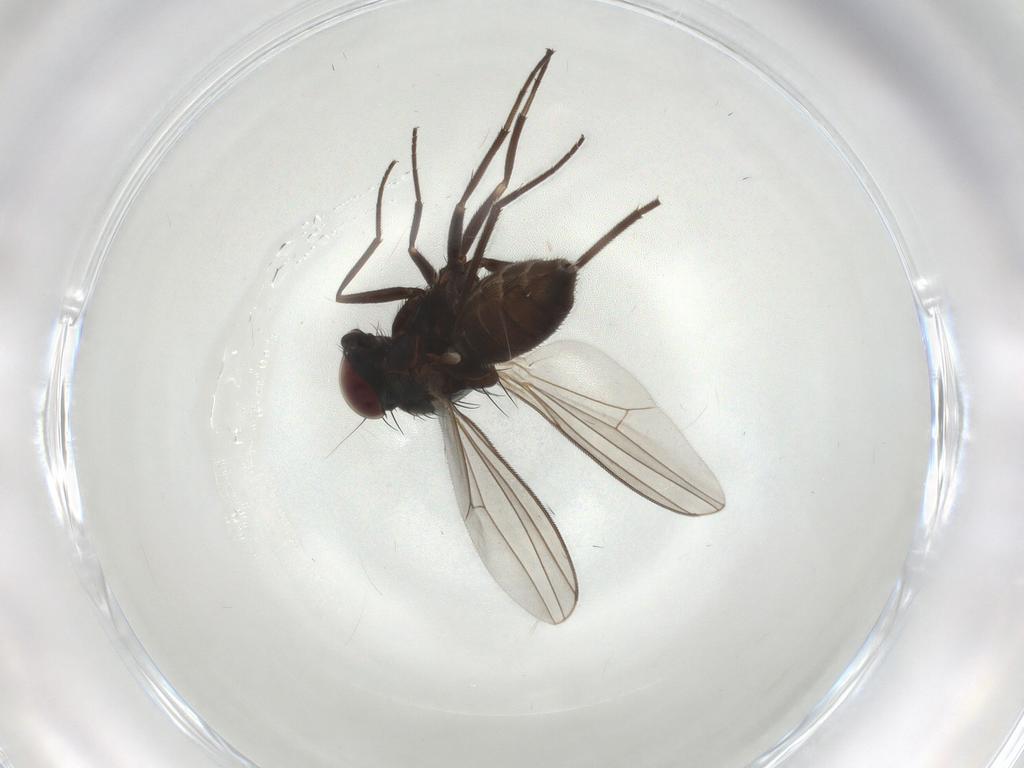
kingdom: Animalia
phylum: Arthropoda
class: Insecta
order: Diptera
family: Dolichopodidae
